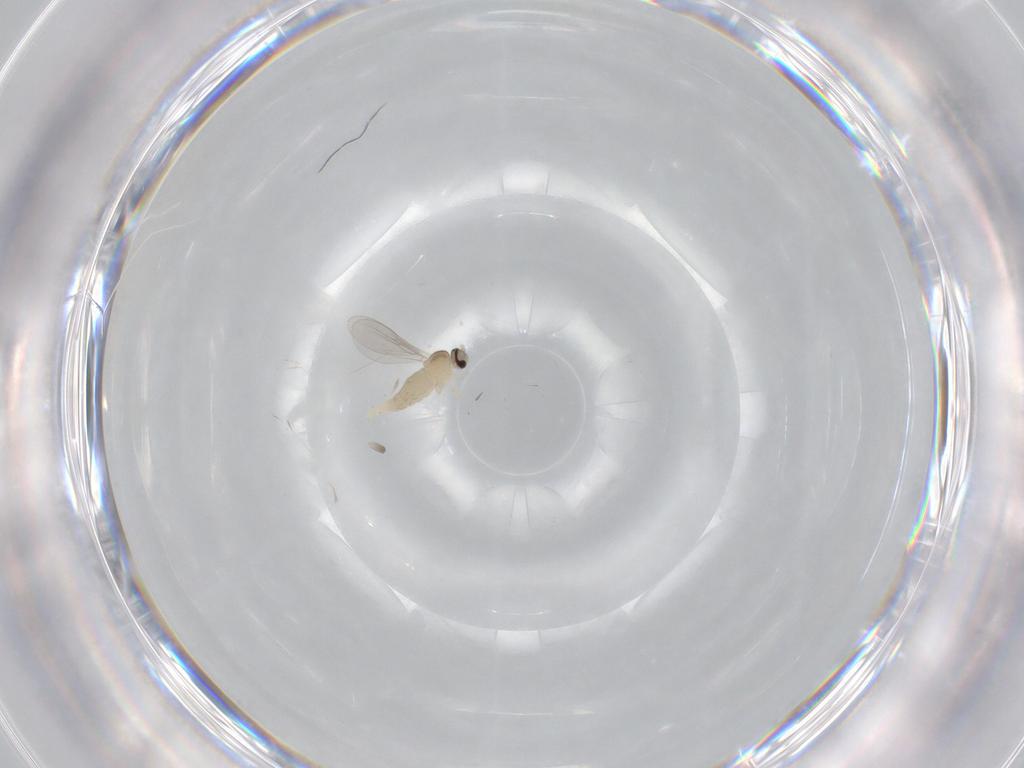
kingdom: Animalia
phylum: Arthropoda
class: Insecta
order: Diptera
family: Cecidomyiidae
